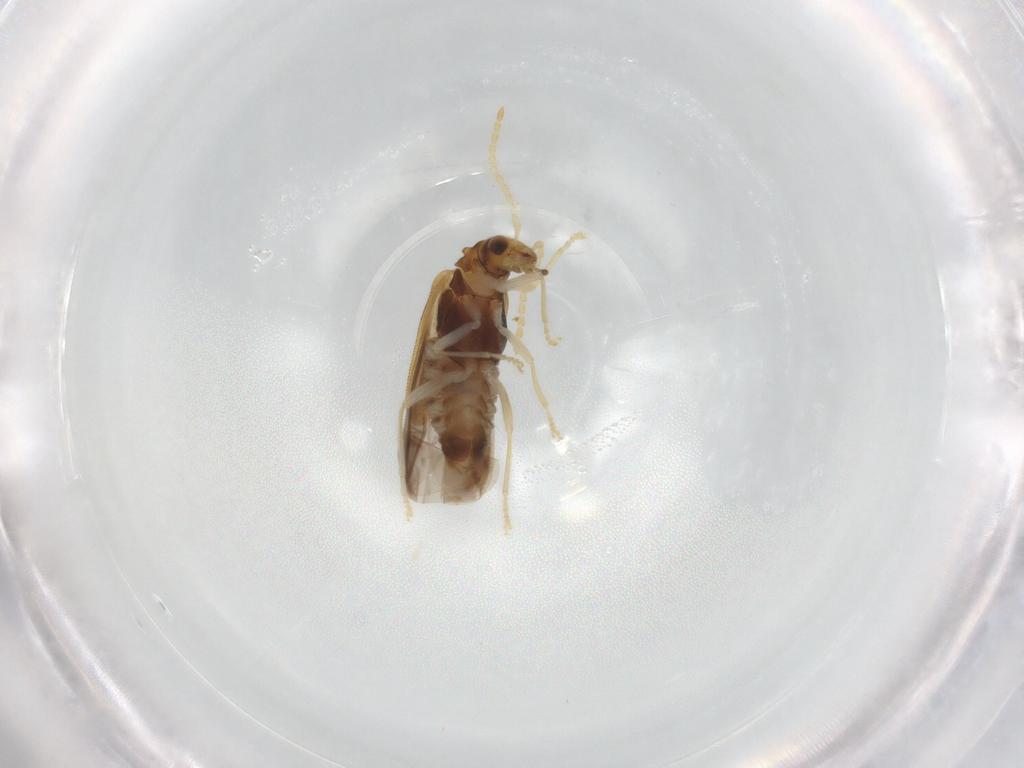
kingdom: Animalia
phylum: Arthropoda
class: Insecta
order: Coleoptera
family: Cantharidae
